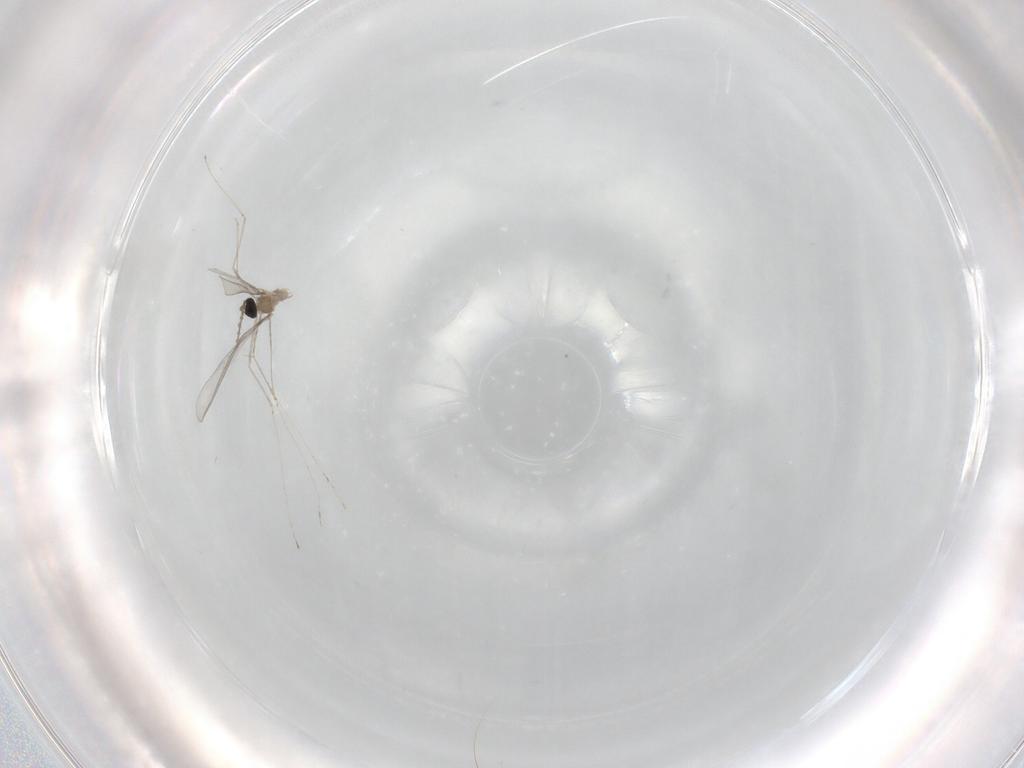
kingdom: Animalia
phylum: Arthropoda
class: Insecta
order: Diptera
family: Cecidomyiidae
